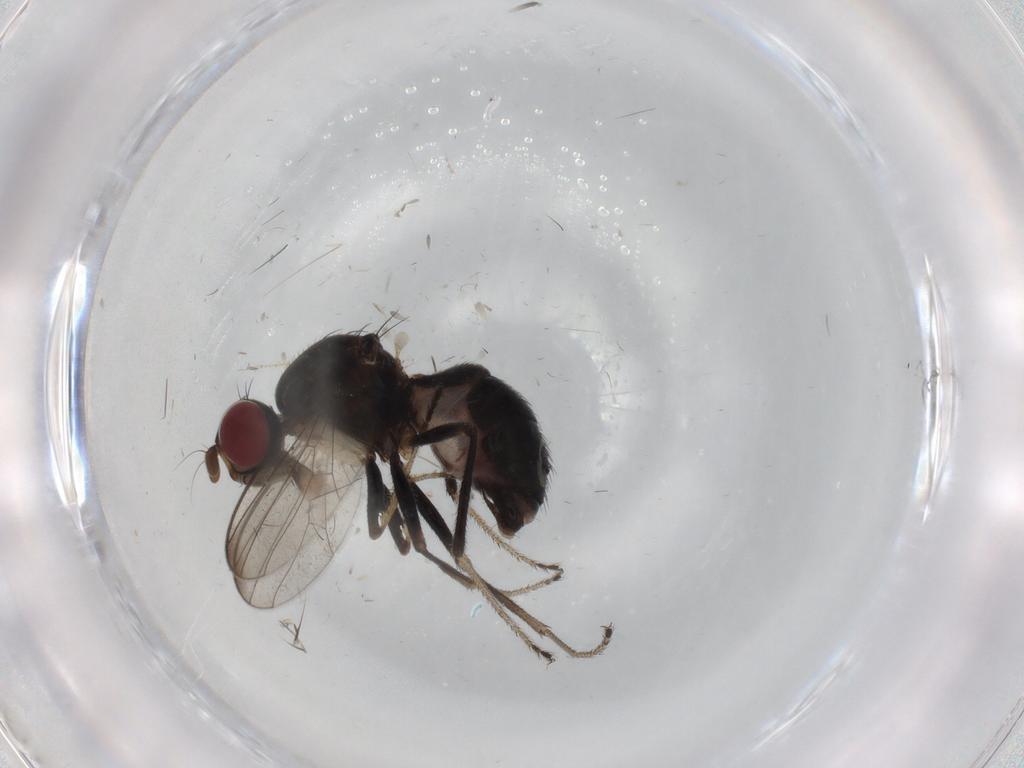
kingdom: Animalia
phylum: Arthropoda
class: Insecta
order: Diptera
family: Sepsidae
